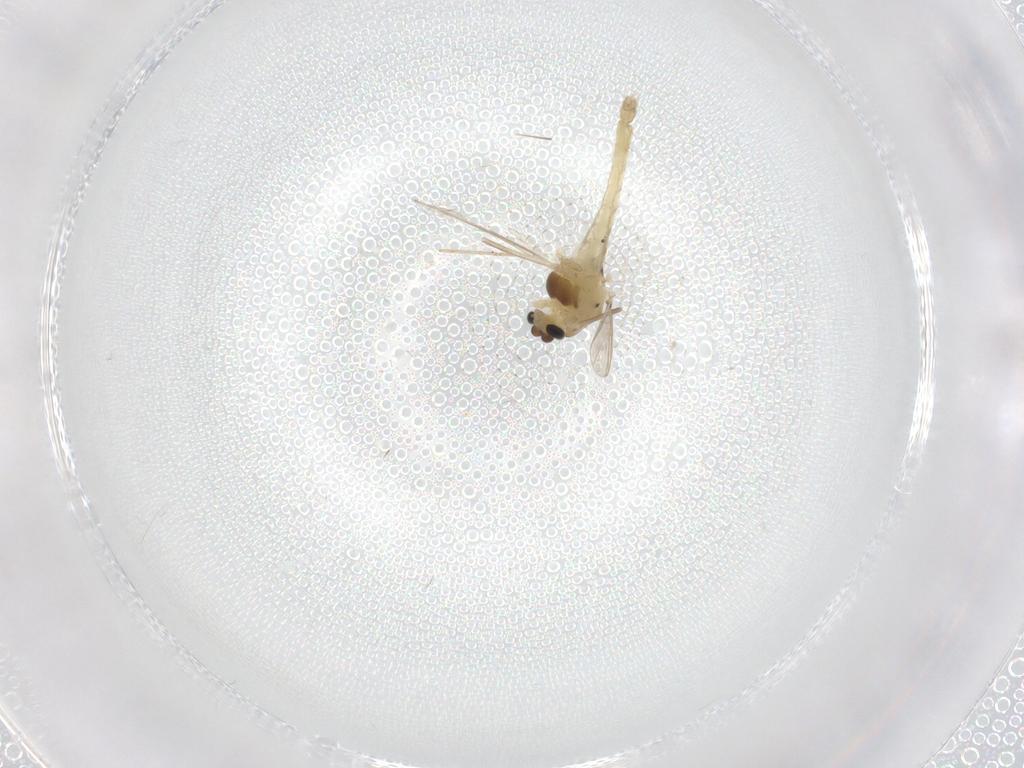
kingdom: Animalia
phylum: Arthropoda
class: Insecta
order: Diptera
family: Chironomidae
